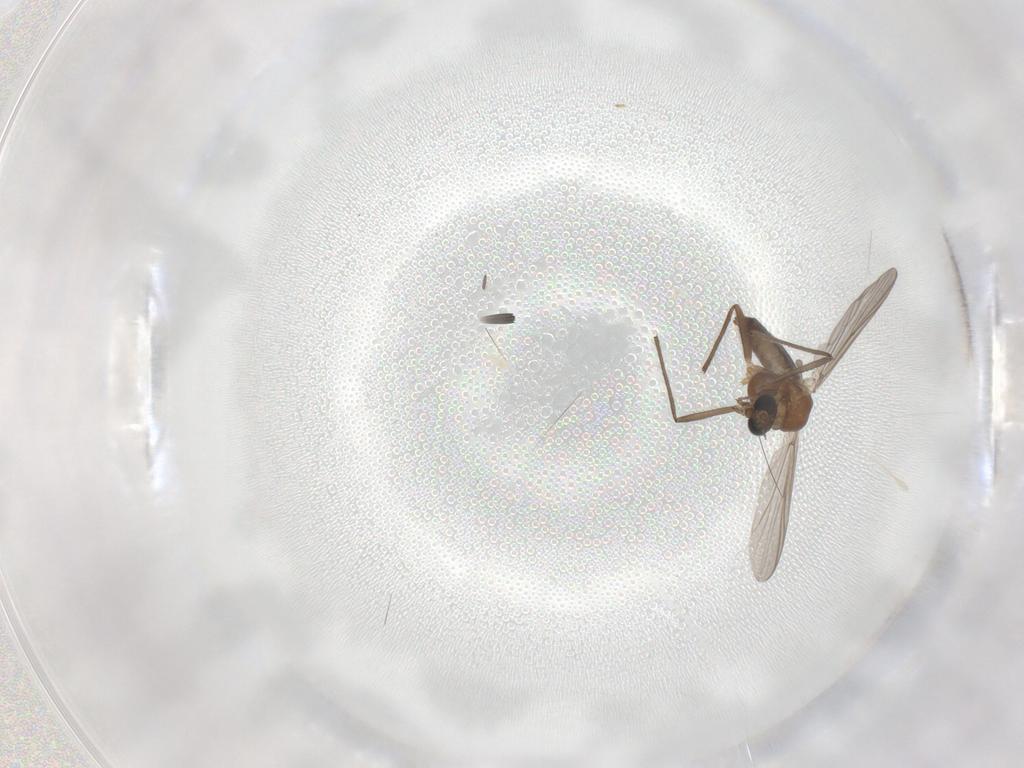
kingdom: Animalia
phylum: Arthropoda
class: Insecta
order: Diptera
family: Chironomidae
